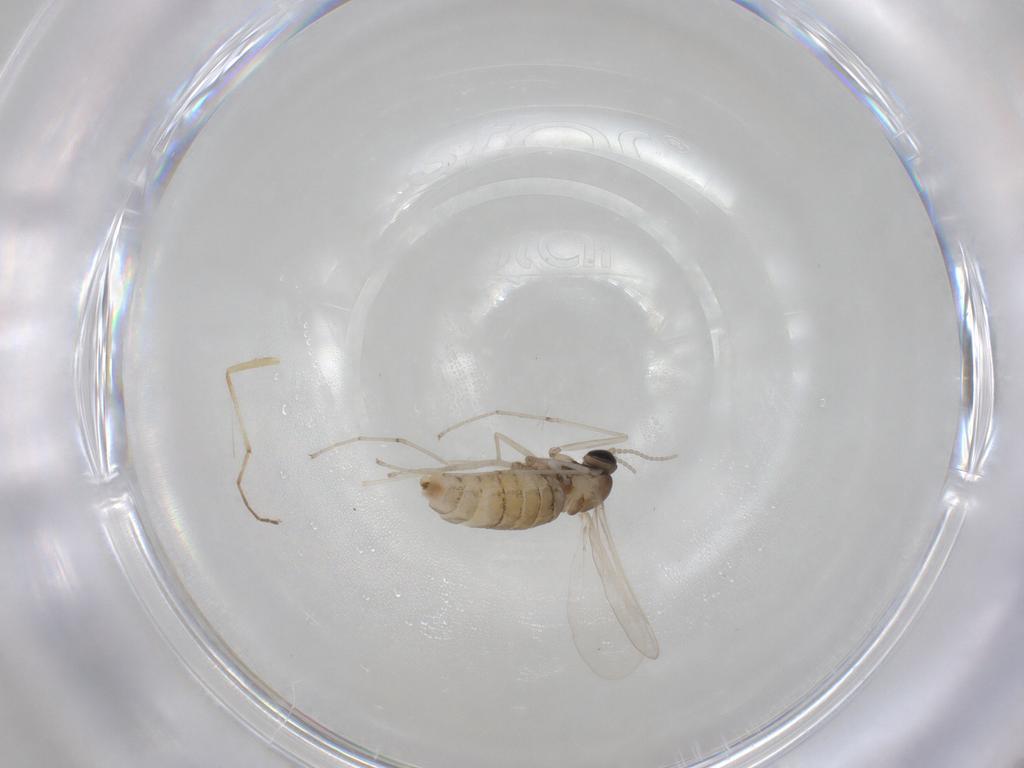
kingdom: Animalia
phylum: Arthropoda
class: Insecta
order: Diptera
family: Cecidomyiidae
